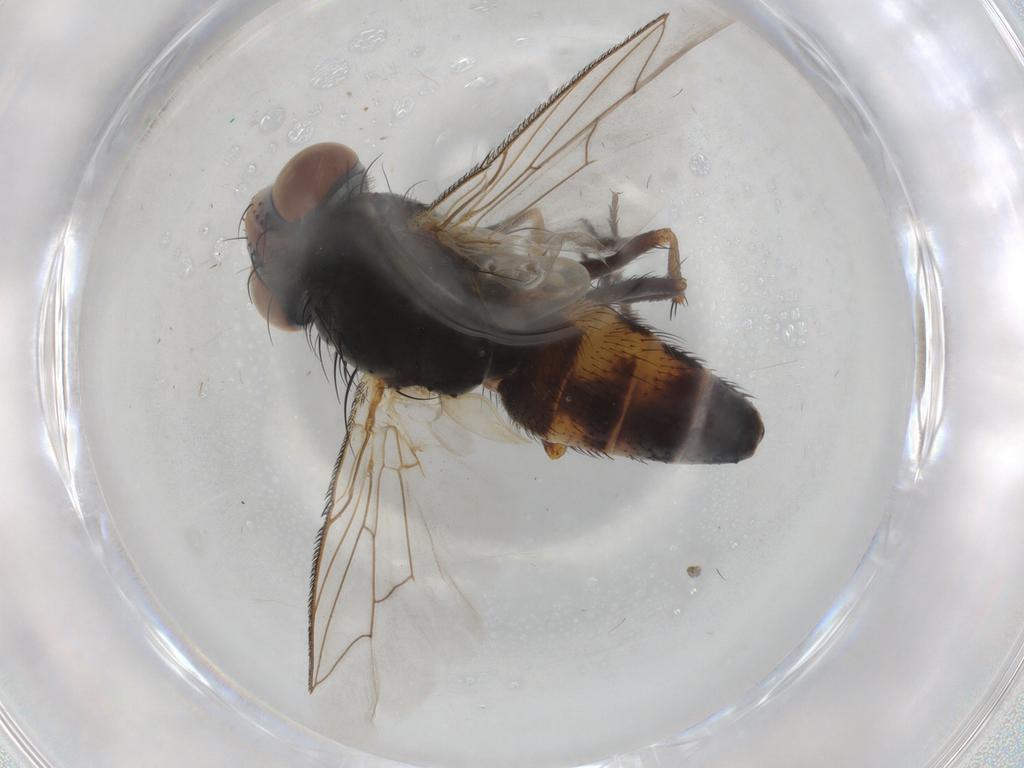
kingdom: Animalia
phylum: Arthropoda
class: Insecta
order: Diptera
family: Sarcophagidae
